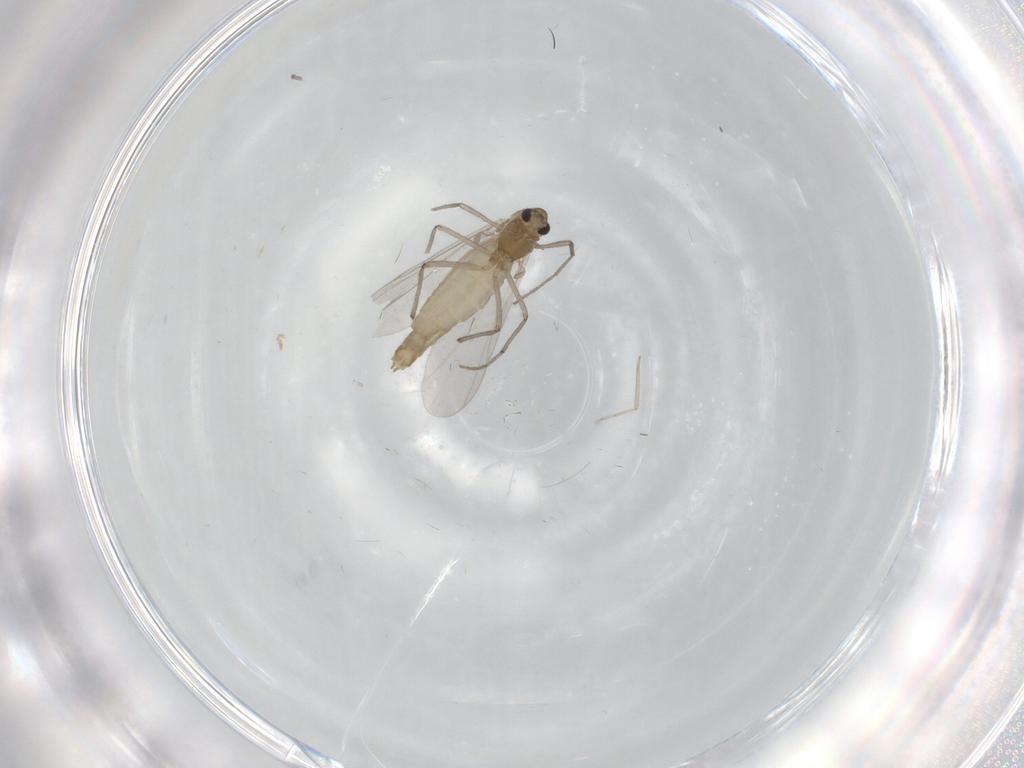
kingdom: Animalia
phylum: Arthropoda
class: Insecta
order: Diptera
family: Chironomidae
